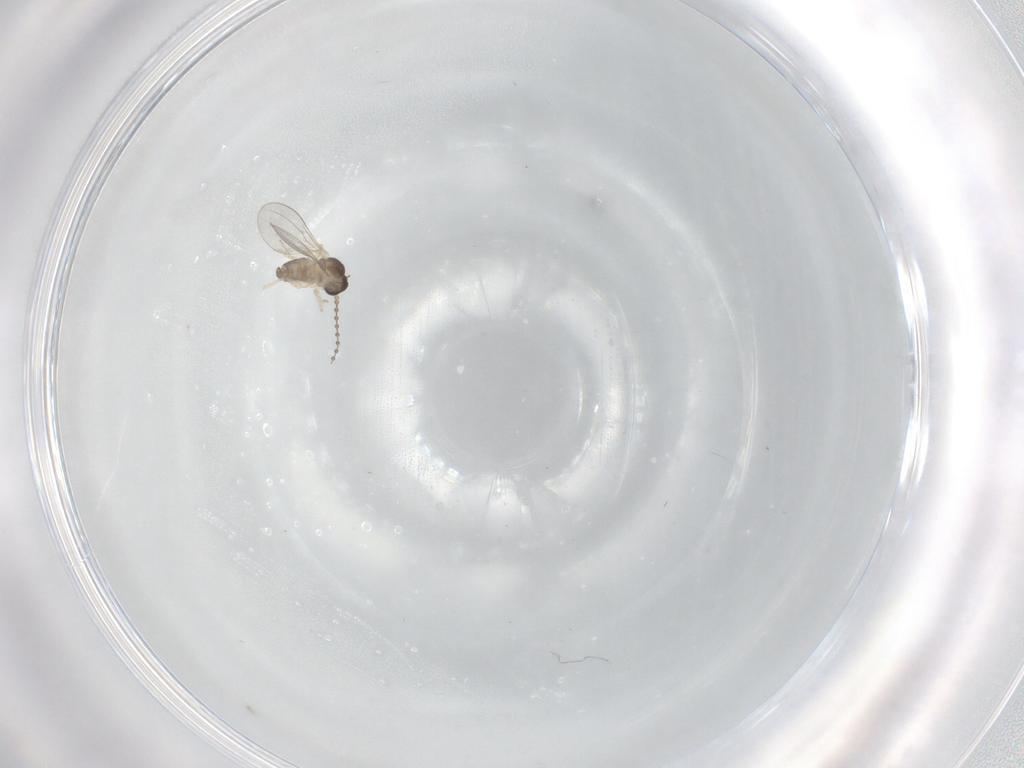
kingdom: Animalia
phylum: Arthropoda
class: Insecta
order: Diptera
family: Cecidomyiidae
